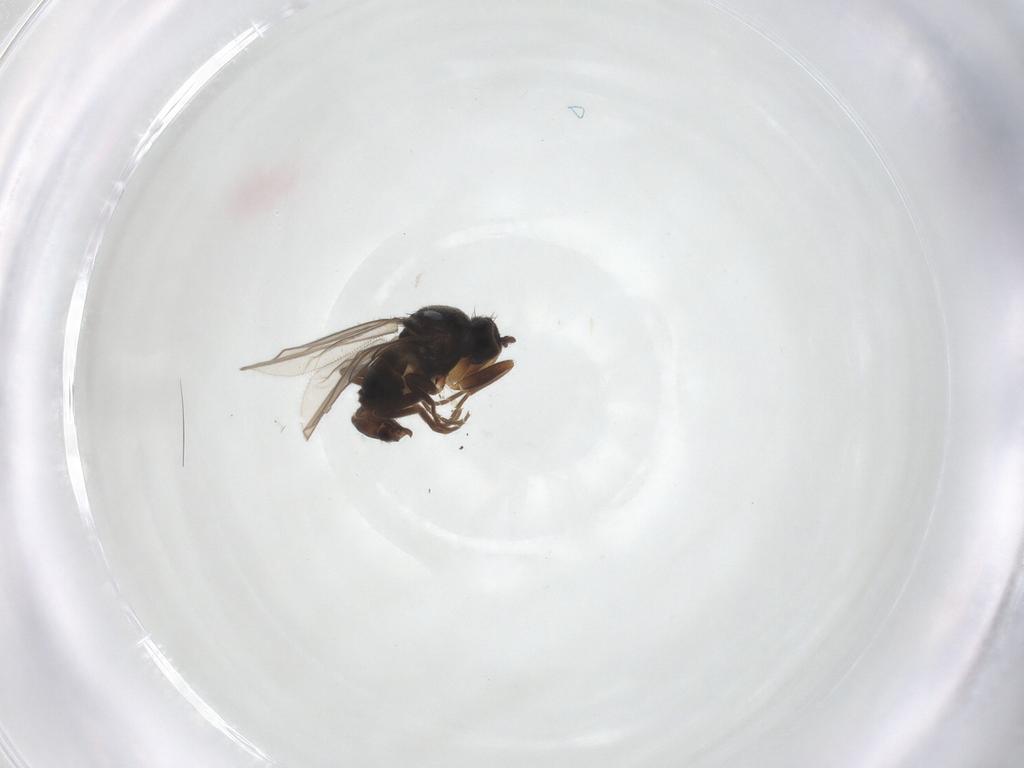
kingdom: Animalia
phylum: Arthropoda
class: Insecta
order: Diptera
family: Hybotidae
